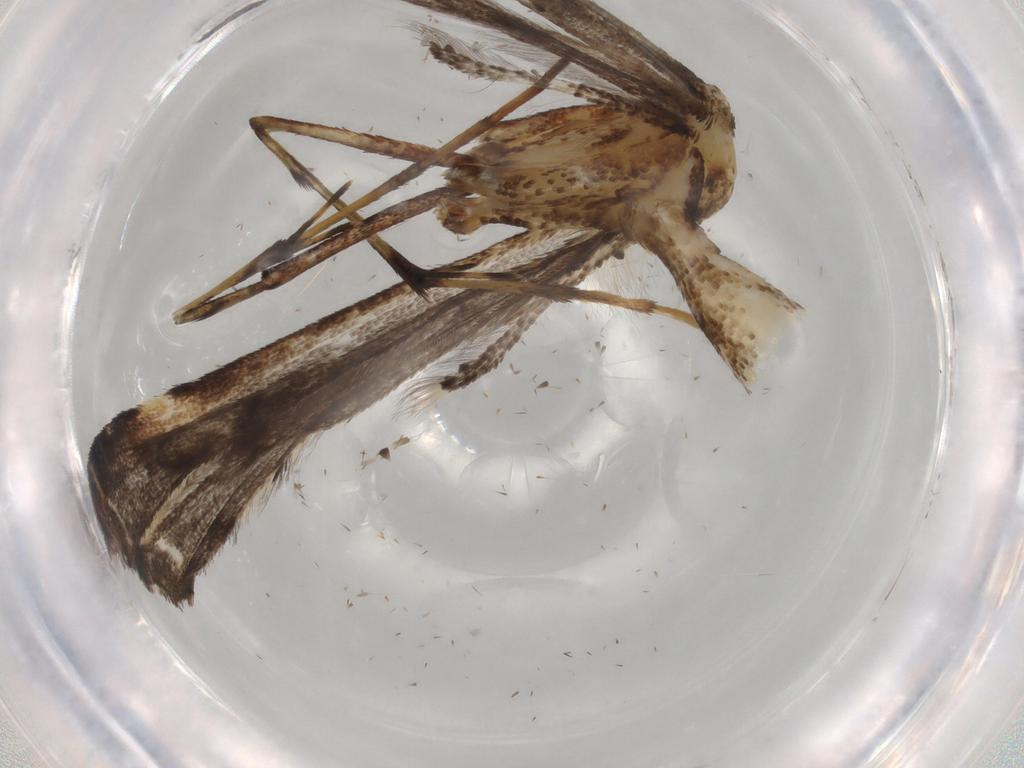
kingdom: Animalia
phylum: Arthropoda
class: Insecta
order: Lepidoptera
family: Pterophoridae
